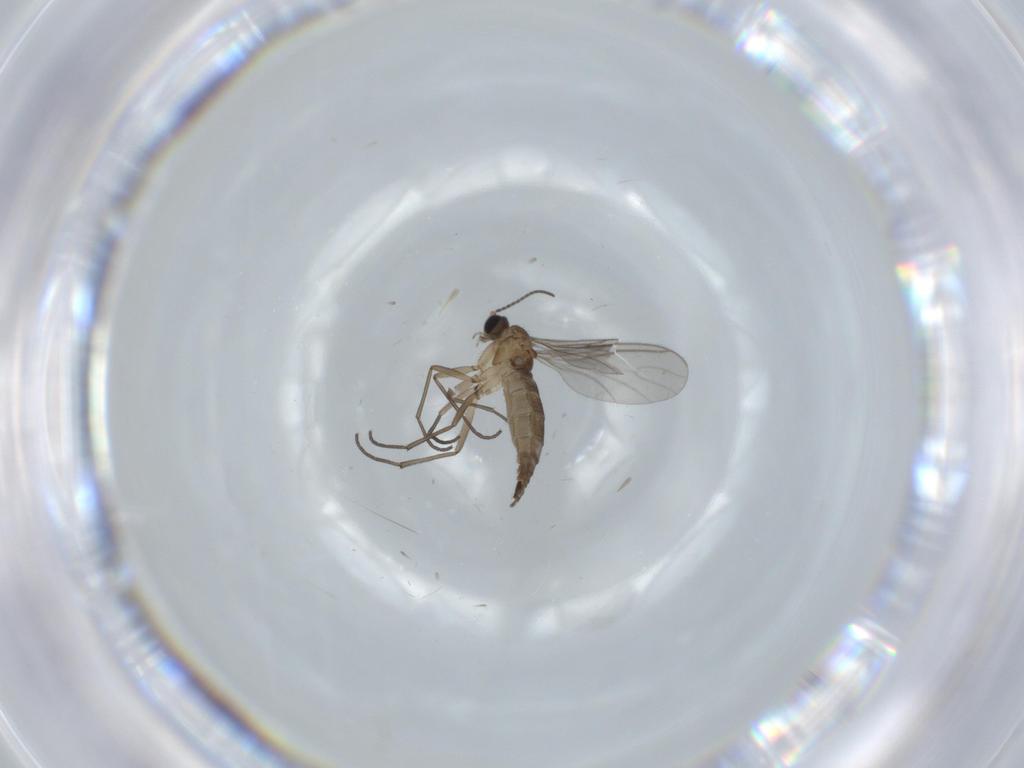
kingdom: Animalia
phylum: Arthropoda
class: Insecta
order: Diptera
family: Sciaridae
